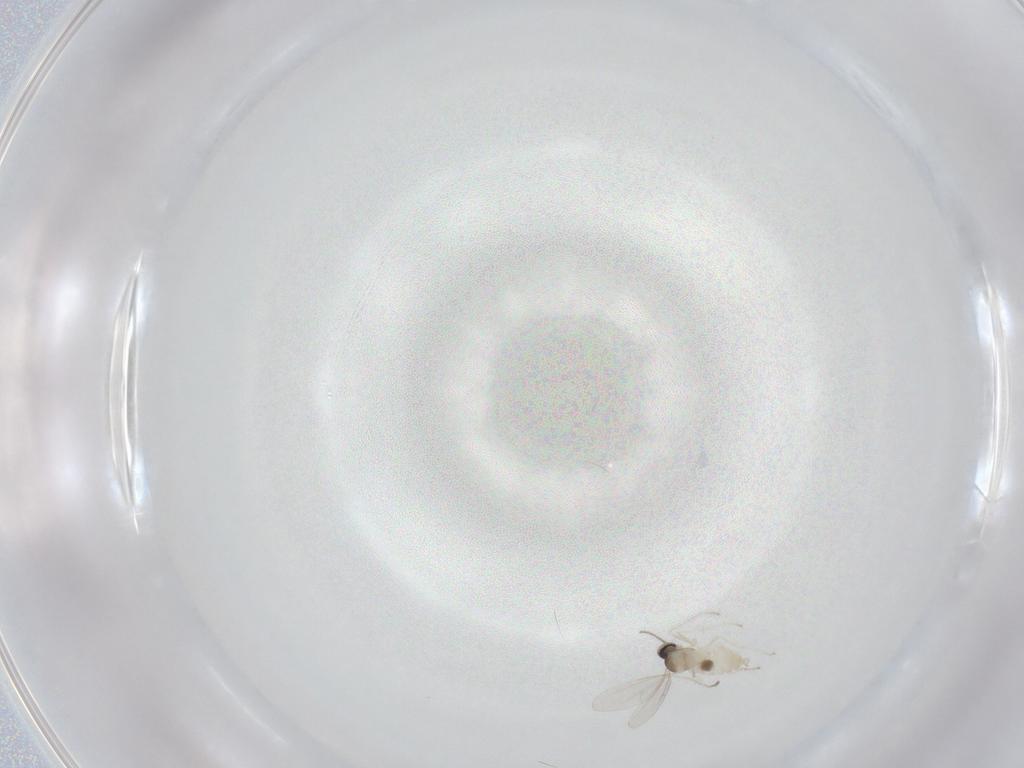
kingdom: Animalia
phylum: Arthropoda
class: Insecta
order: Diptera
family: Cecidomyiidae
